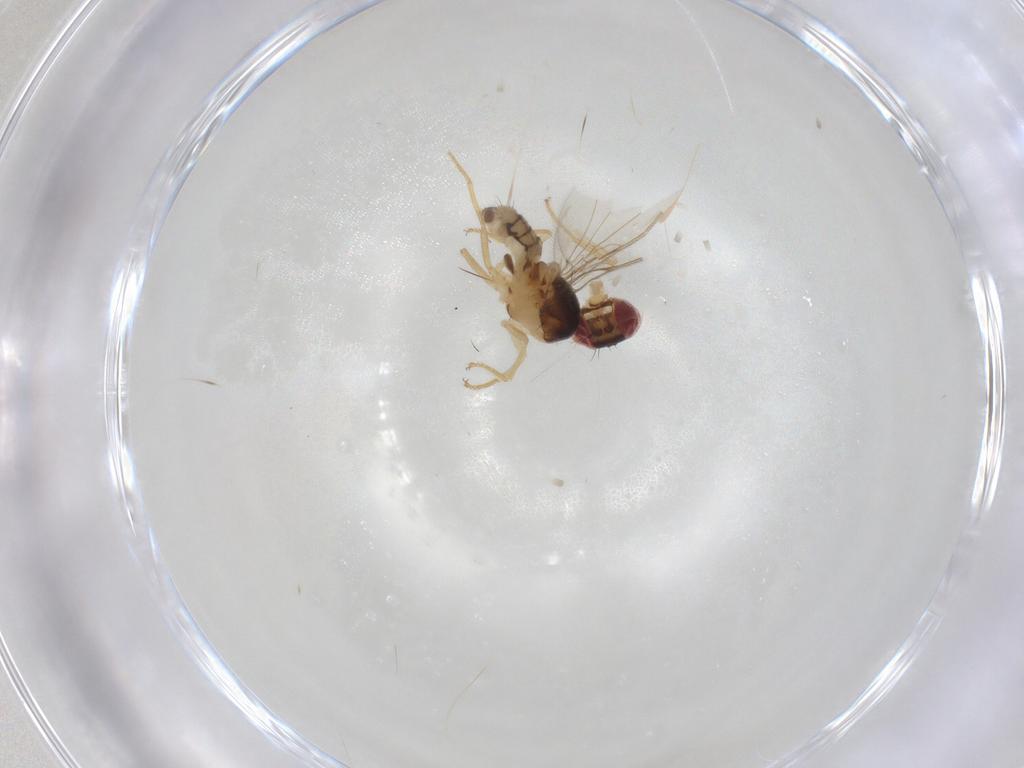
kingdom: Animalia
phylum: Arthropoda
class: Insecta
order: Diptera
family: Asteiidae
